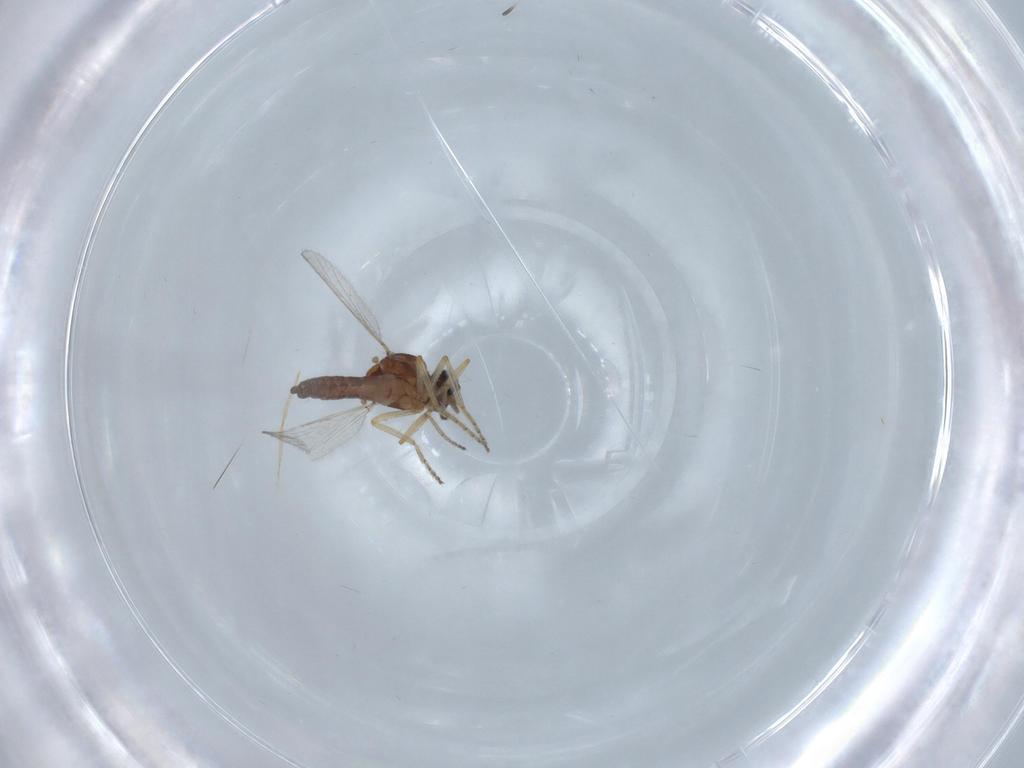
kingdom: Animalia
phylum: Arthropoda
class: Insecta
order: Diptera
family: Ceratopogonidae
